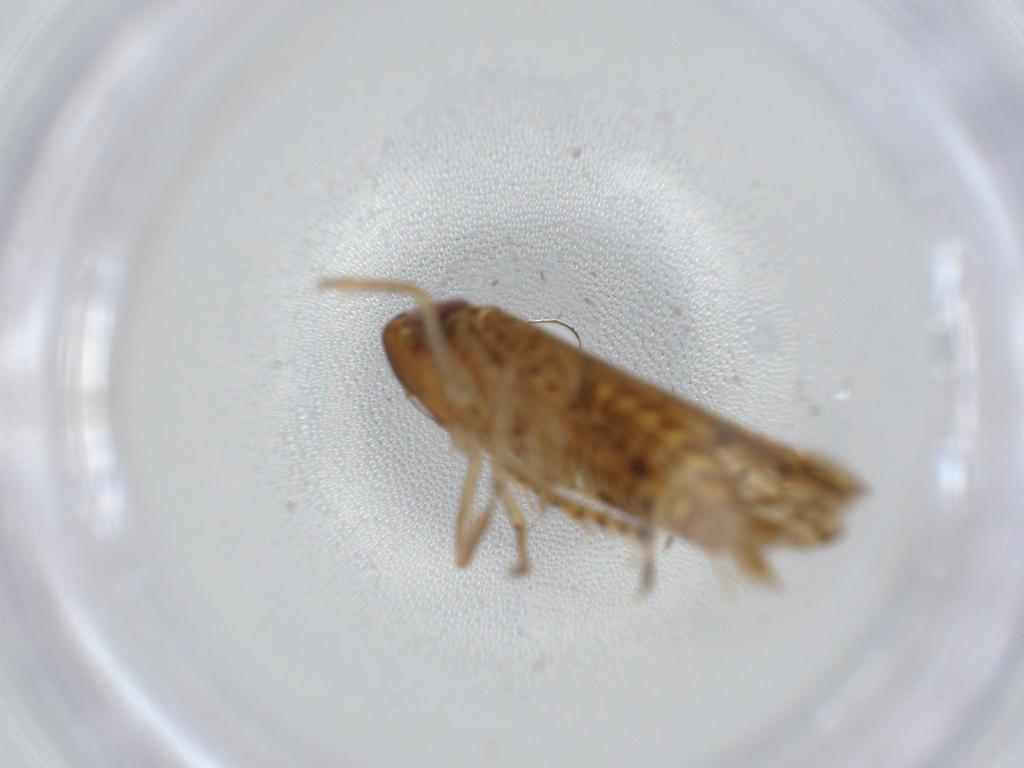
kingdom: Animalia
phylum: Arthropoda
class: Insecta
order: Hemiptera
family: Cicadellidae
